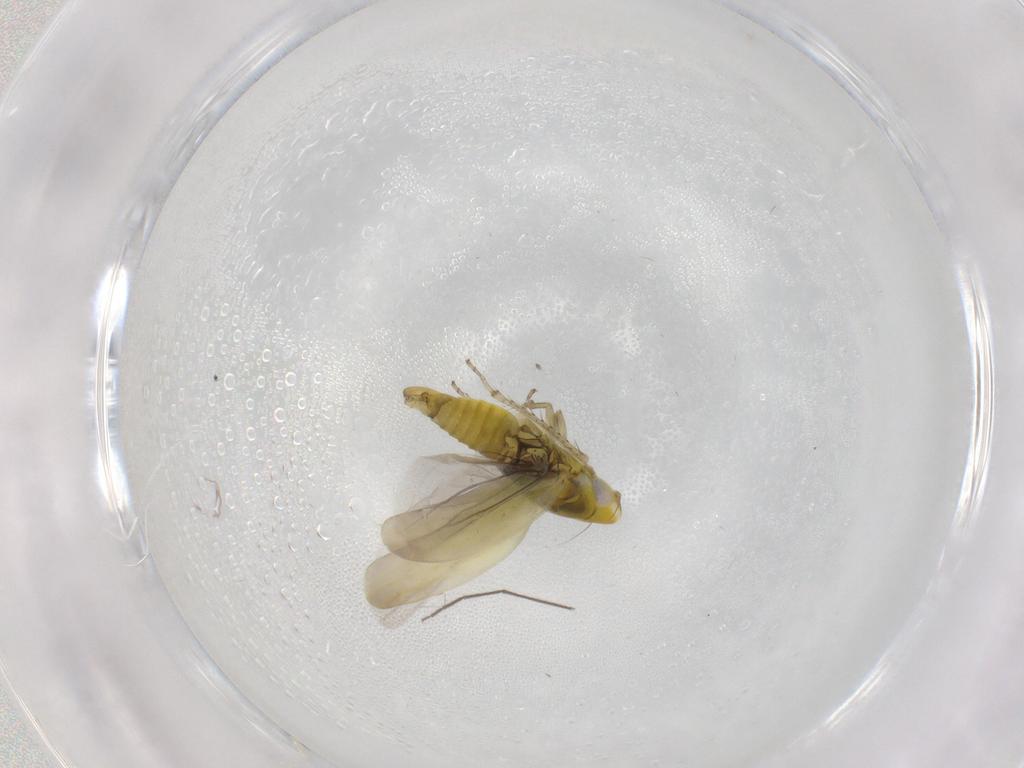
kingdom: Animalia
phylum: Arthropoda
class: Insecta
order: Hemiptera
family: Cicadellidae
